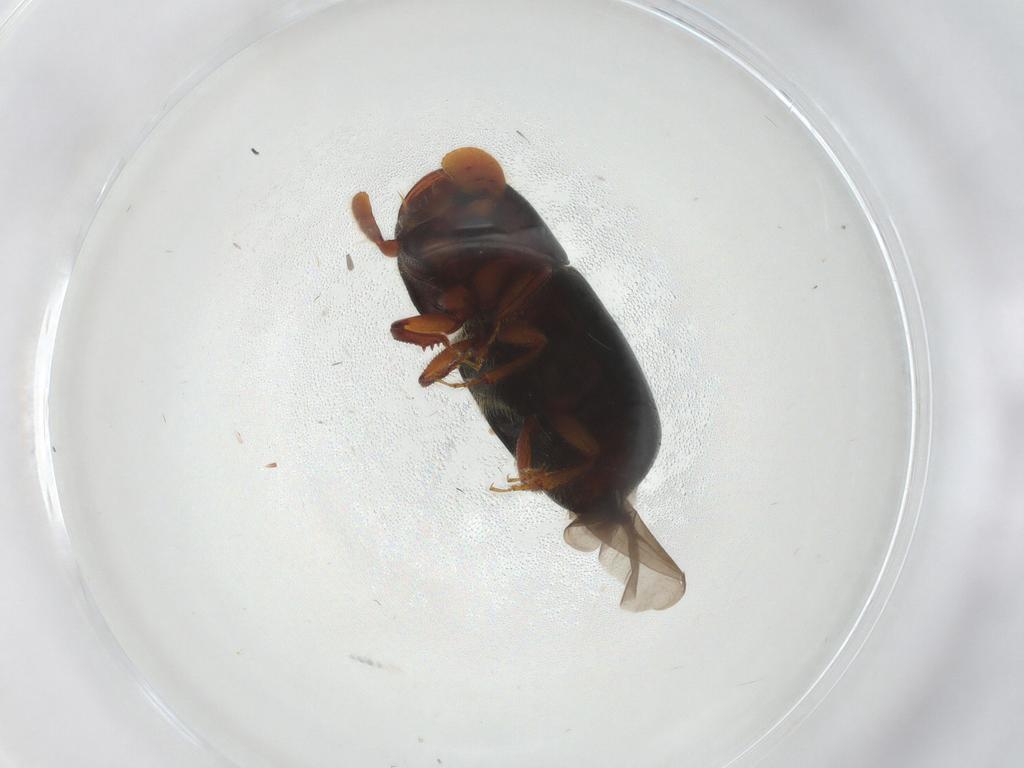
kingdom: Animalia
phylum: Arthropoda
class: Insecta
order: Coleoptera
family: Curculionidae
